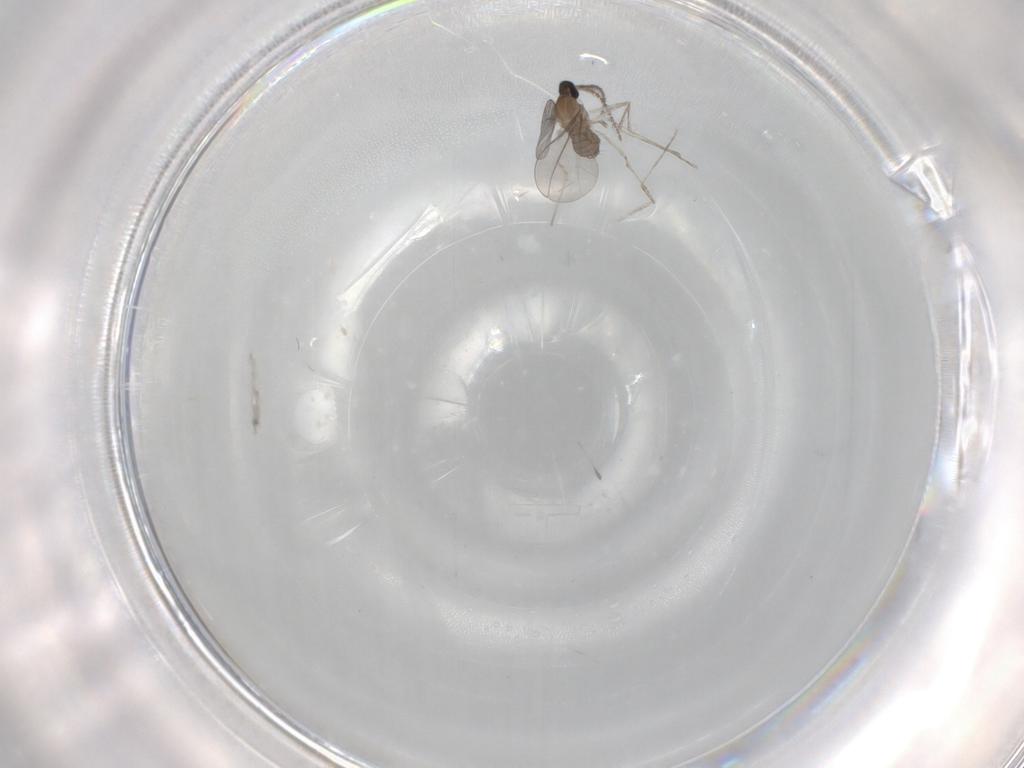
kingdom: Animalia
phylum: Arthropoda
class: Insecta
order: Diptera
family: Cecidomyiidae
